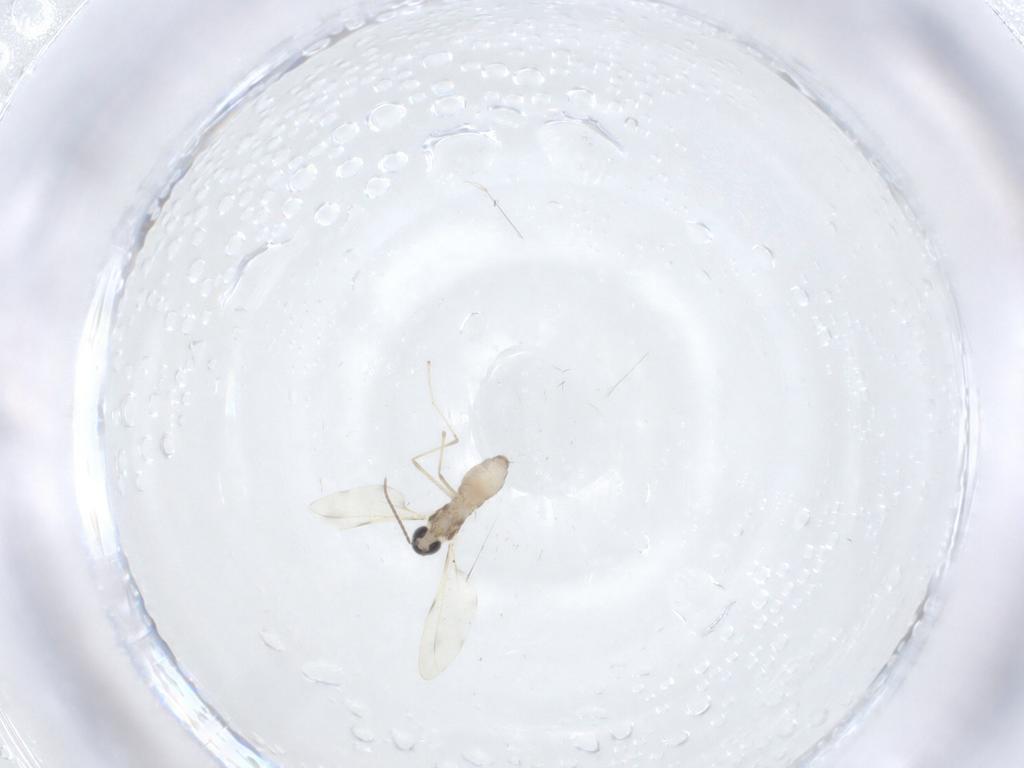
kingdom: Animalia
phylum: Arthropoda
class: Insecta
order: Diptera
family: Cecidomyiidae
